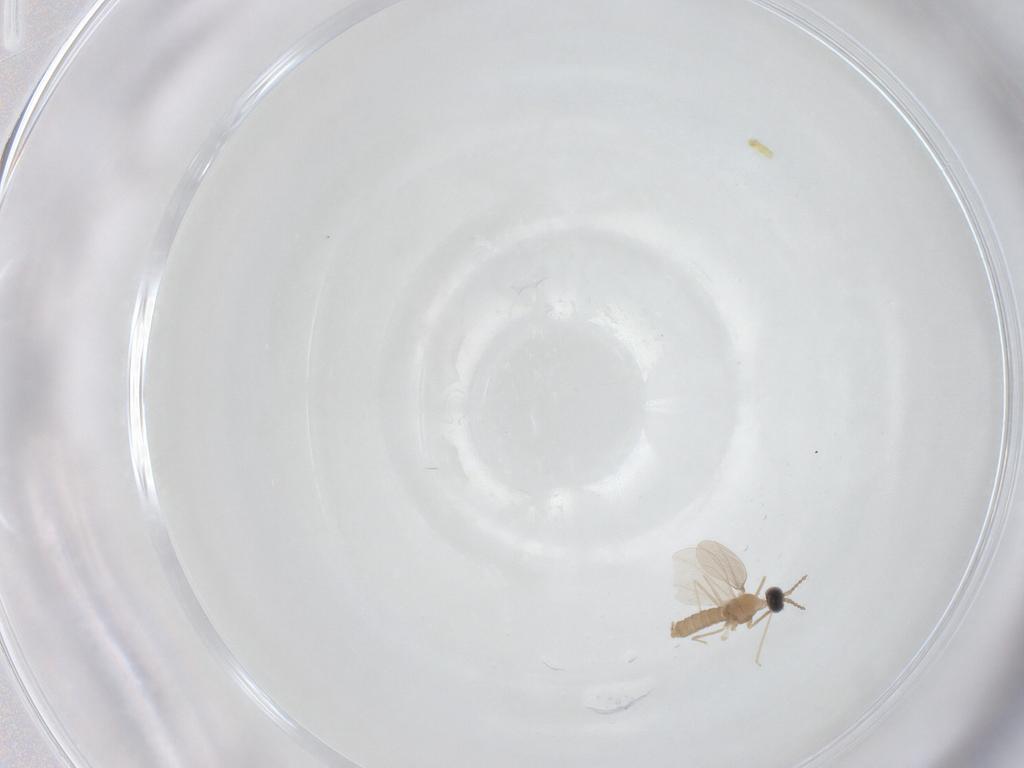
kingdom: Animalia
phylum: Arthropoda
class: Insecta
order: Diptera
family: Cecidomyiidae
